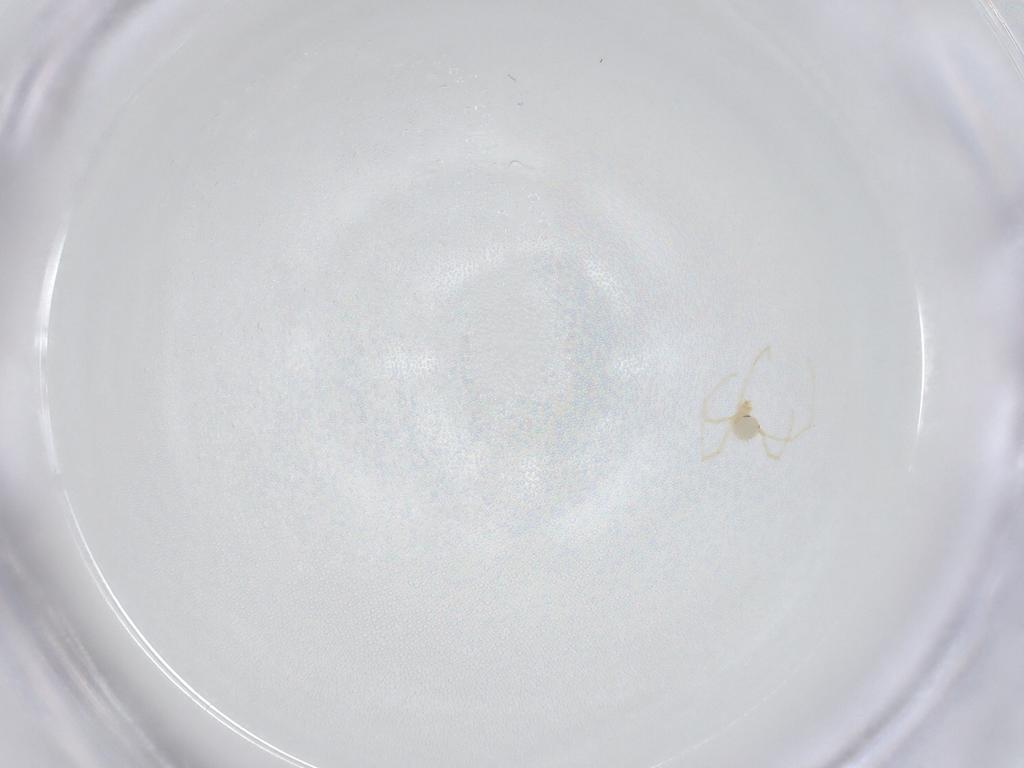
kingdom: Animalia
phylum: Arthropoda
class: Arachnida
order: Trombidiformes
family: Erythraeidae
